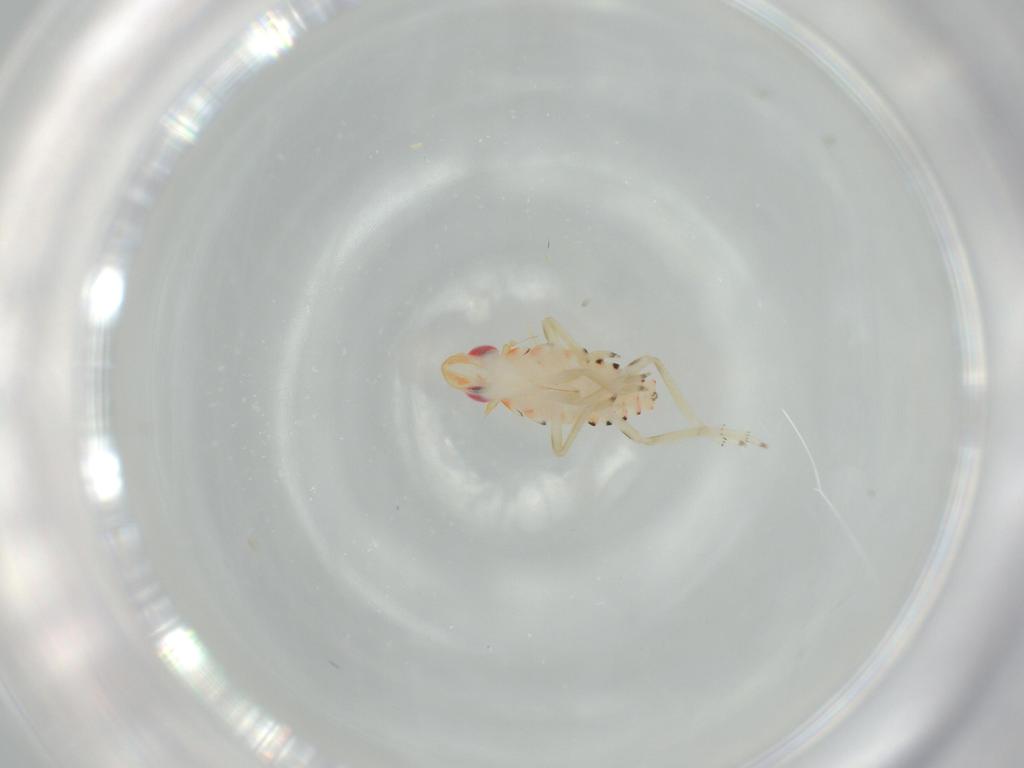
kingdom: Animalia
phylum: Arthropoda
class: Insecta
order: Hemiptera
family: Tropiduchidae
